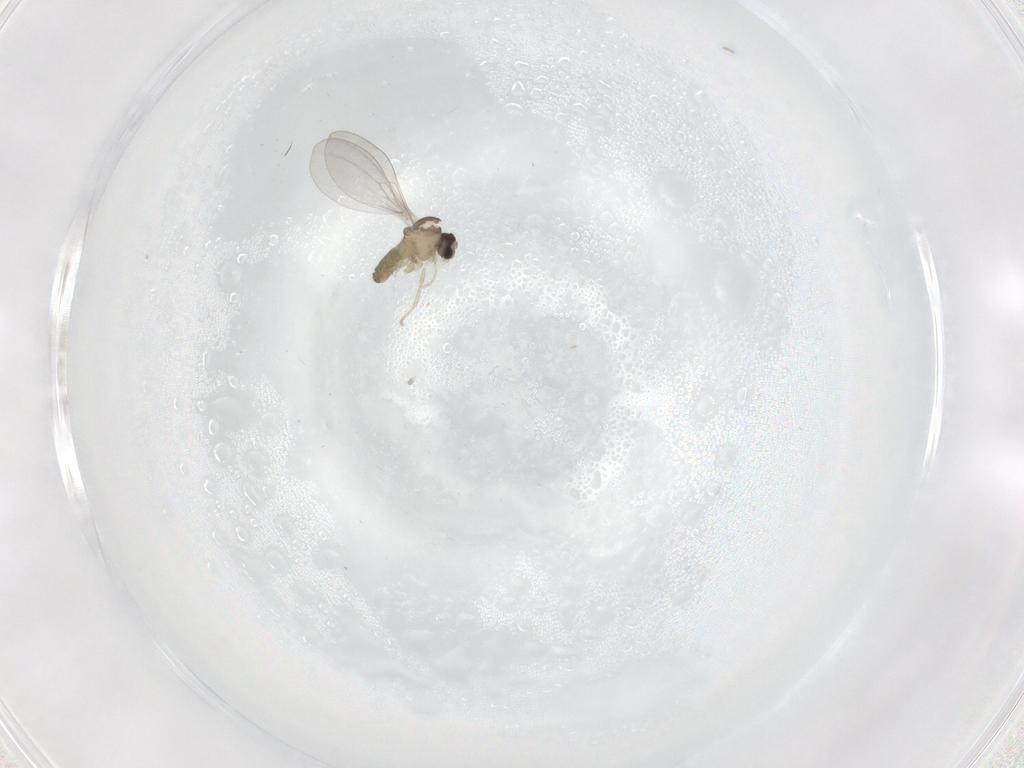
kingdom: Animalia
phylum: Arthropoda
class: Insecta
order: Diptera
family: Cecidomyiidae
